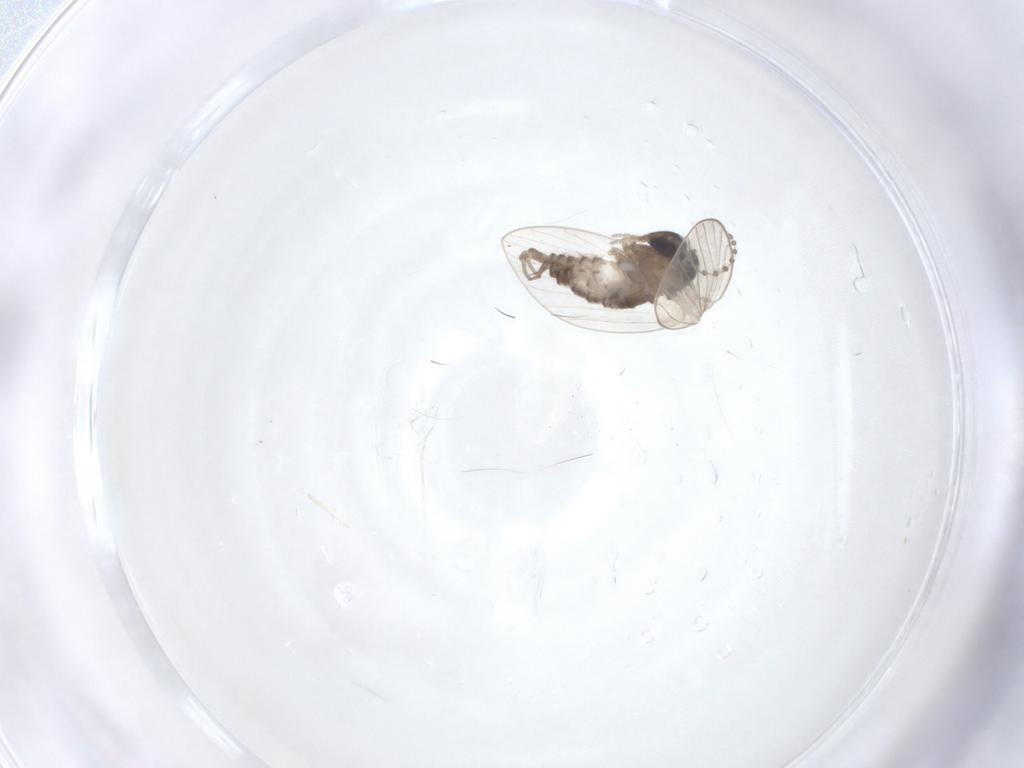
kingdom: Animalia
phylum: Arthropoda
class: Insecta
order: Diptera
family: Psychodidae
